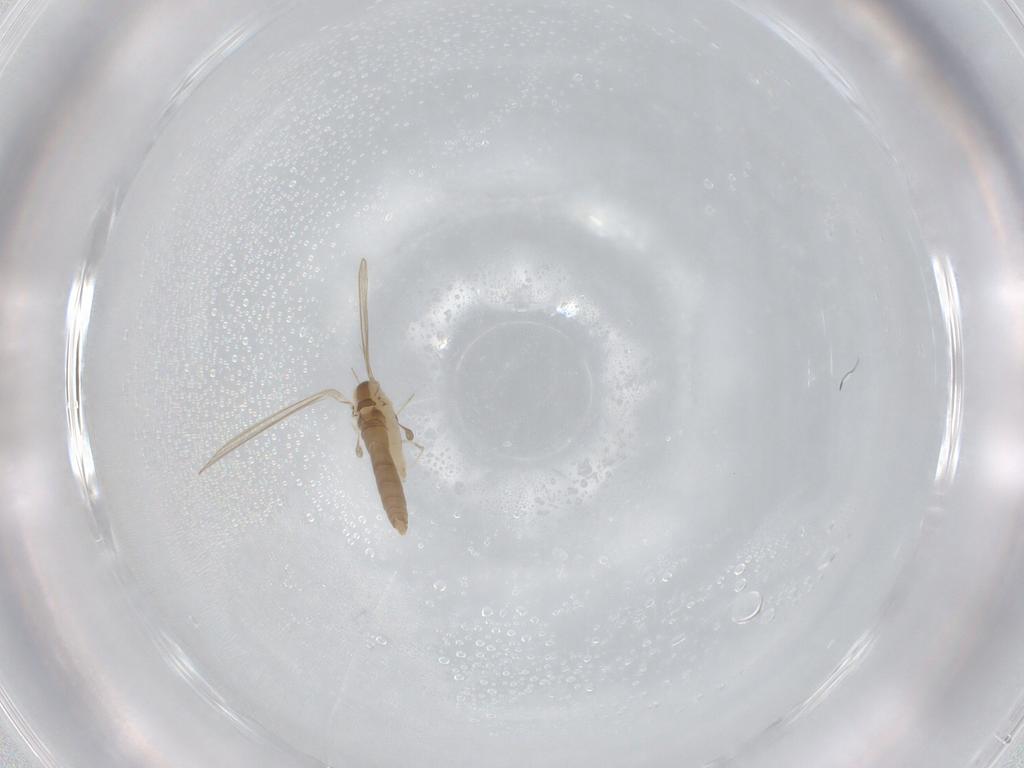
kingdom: Animalia
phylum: Arthropoda
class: Insecta
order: Diptera
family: Psychodidae
